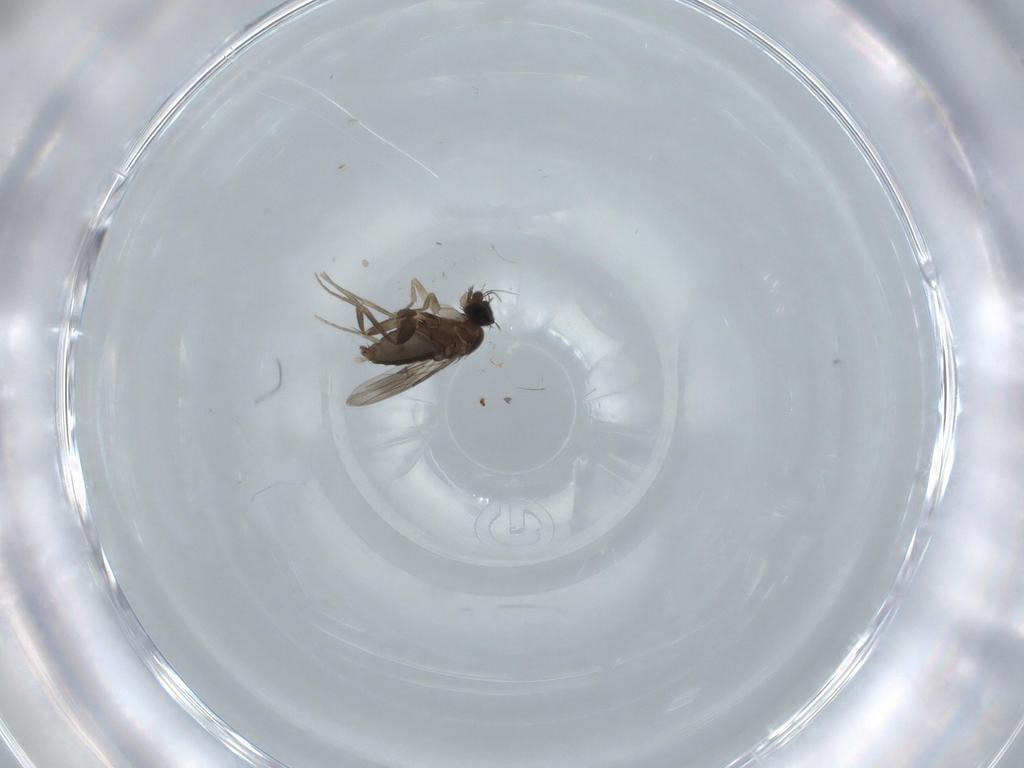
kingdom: Animalia
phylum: Arthropoda
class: Insecta
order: Diptera
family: Phoridae
